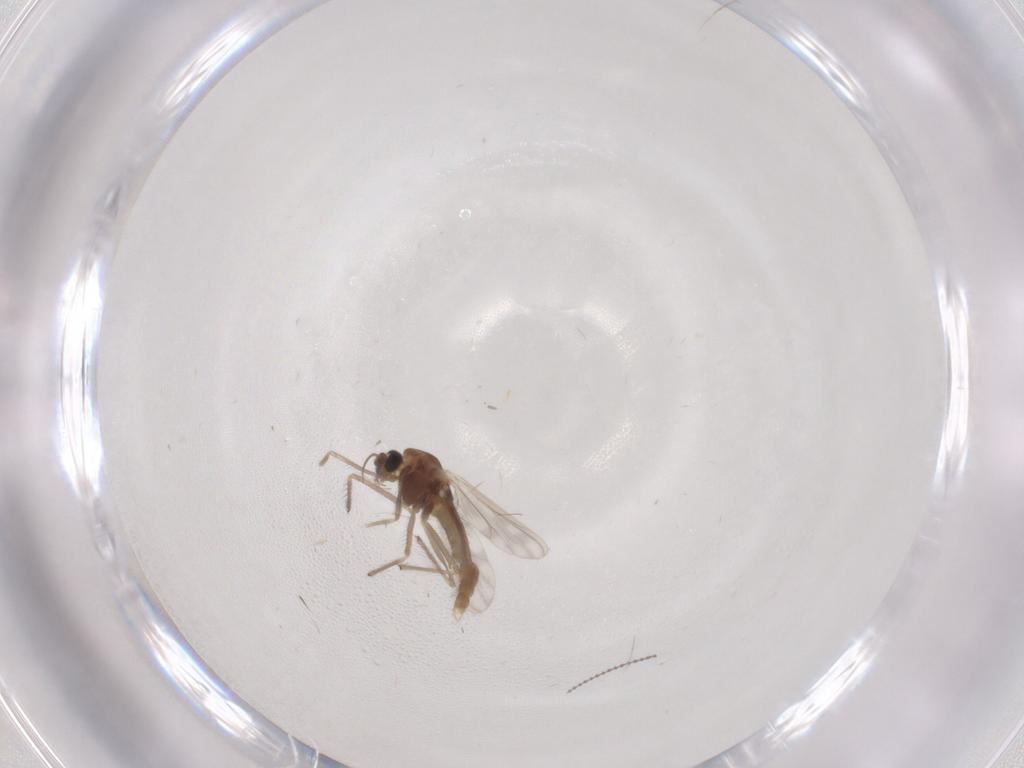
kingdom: Animalia
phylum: Arthropoda
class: Insecta
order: Diptera
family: Chironomidae
